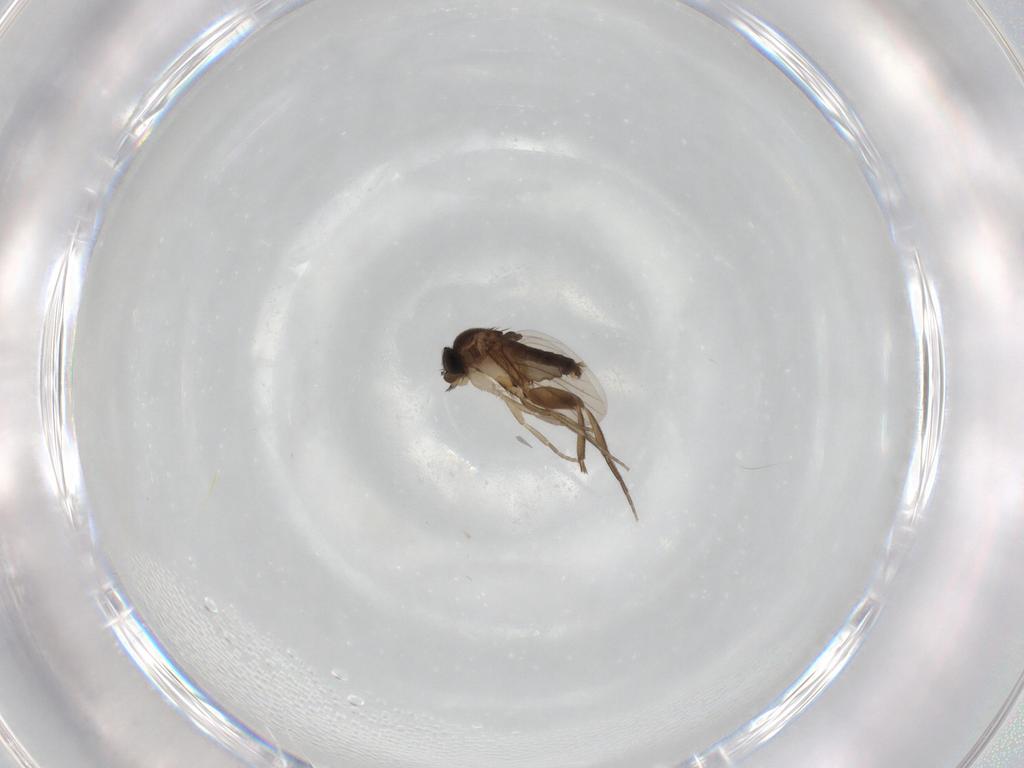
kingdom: Animalia
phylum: Arthropoda
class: Insecta
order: Diptera
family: Phoridae
